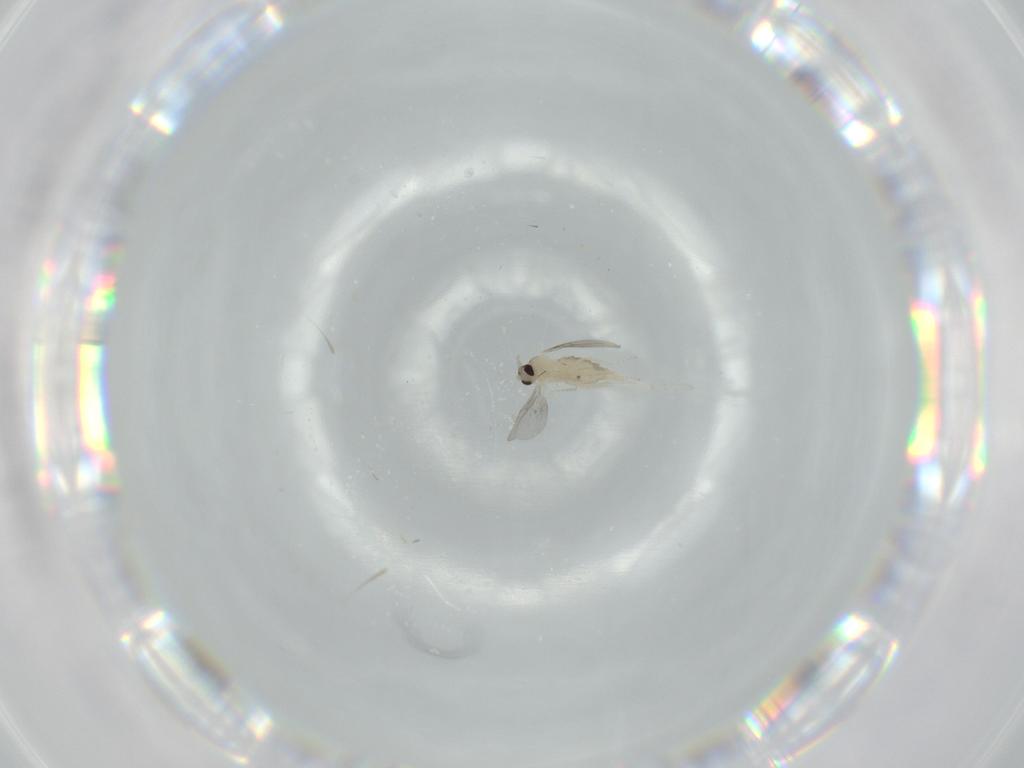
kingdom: Animalia
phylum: Arthropoda
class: Insecta
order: Diptera
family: Cecidomyiidae
